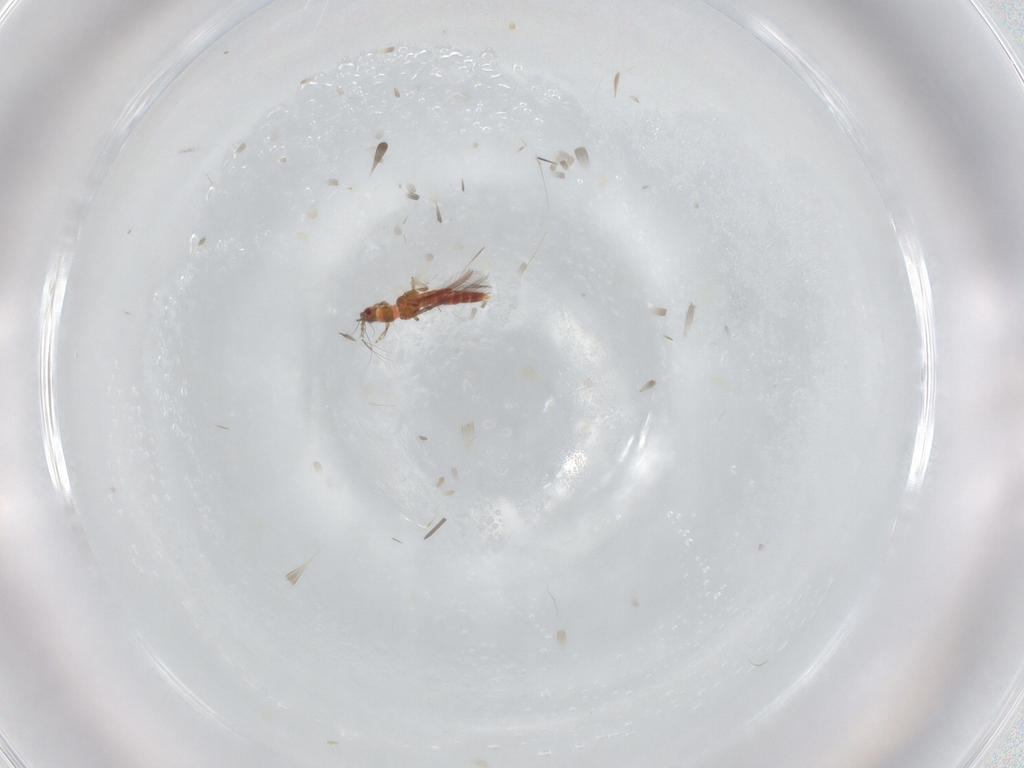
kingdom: Animalia
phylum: Arthropoda
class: Insecta
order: Thysanoptera
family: Thripidae
